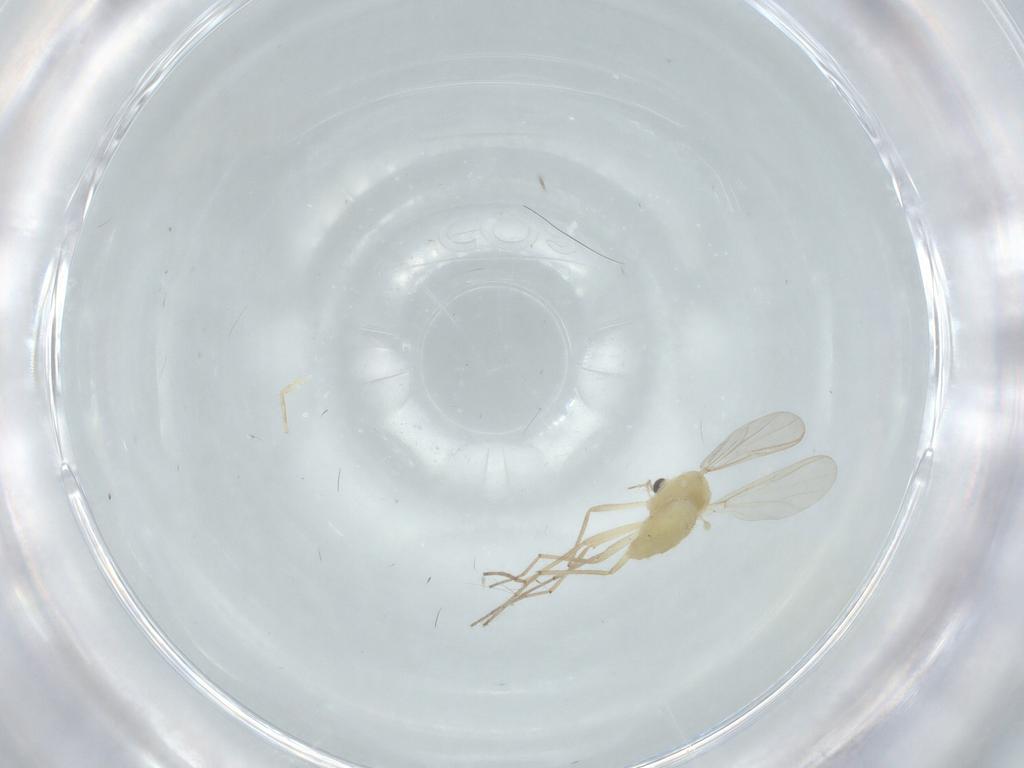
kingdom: Animalia
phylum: Arthropoda
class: Insecta
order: Diptera
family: Chironomidae
